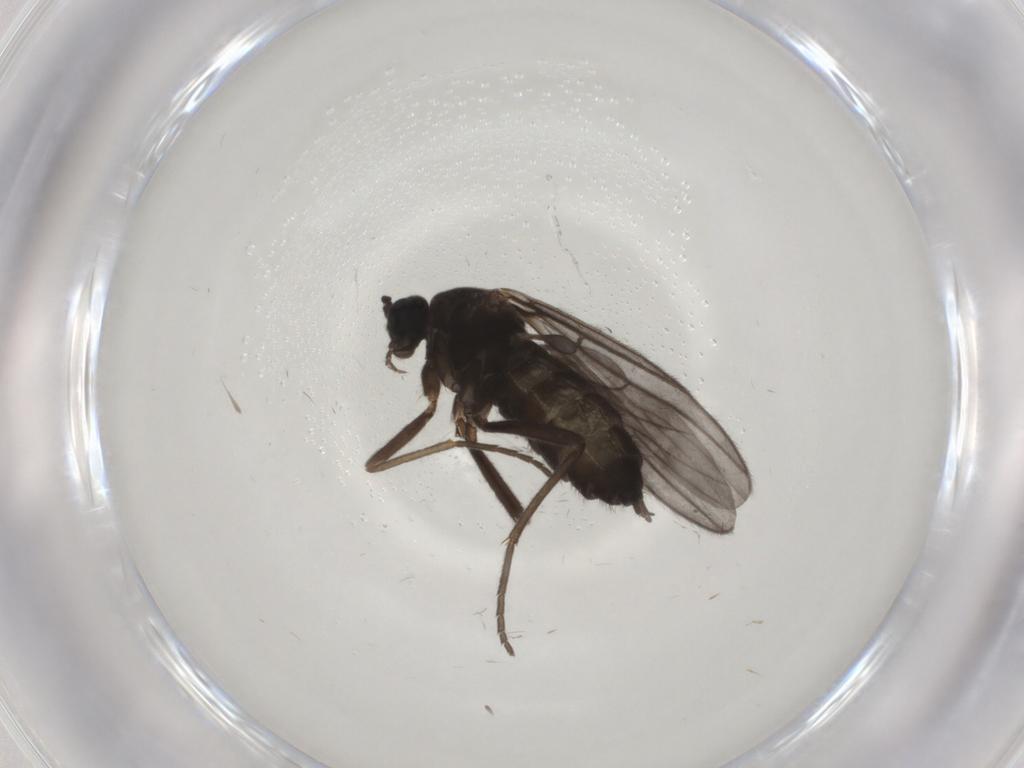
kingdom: Animalia
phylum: Arthropoda
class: Insecta
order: Diptera
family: Sciaridae
